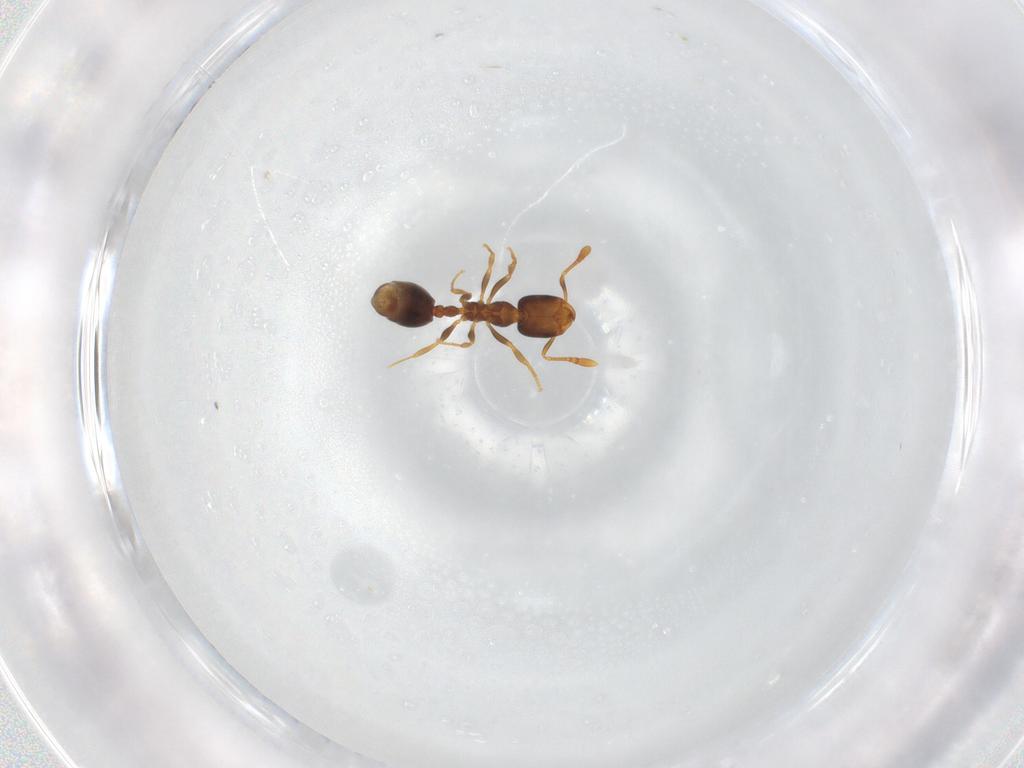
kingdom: Animalia
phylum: Arthropoda
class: Insecta
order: Hymenoptera
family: Formicidae
